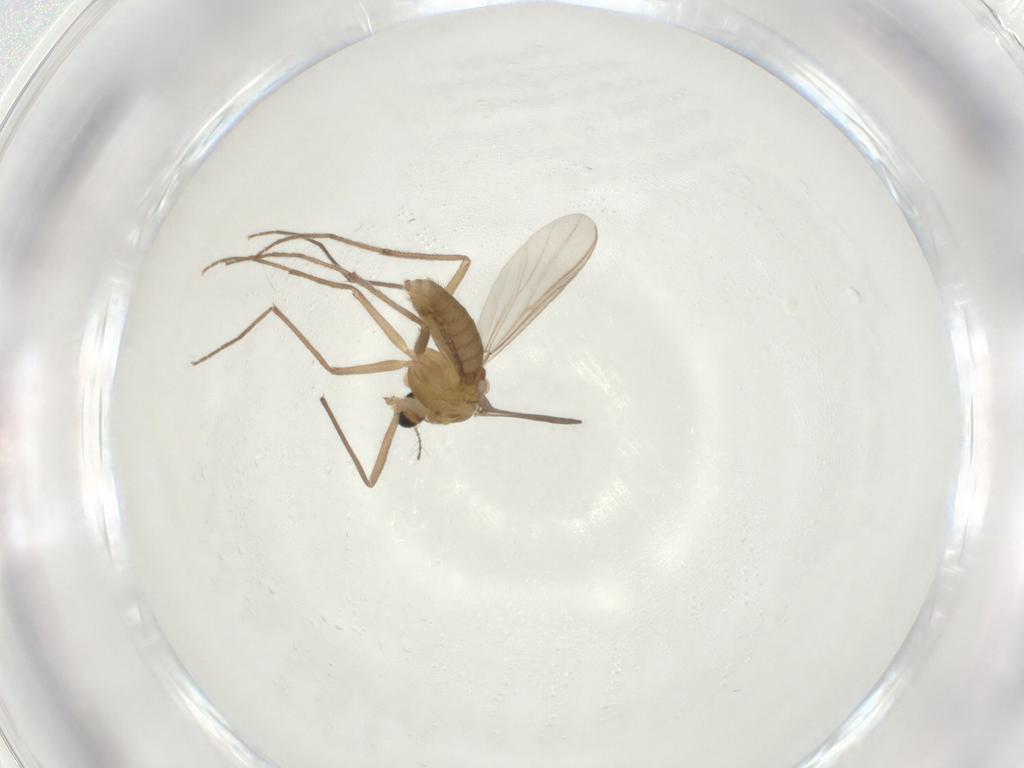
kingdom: Animalia
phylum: Arthropoda
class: Insecta
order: Diptera
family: Chironomidae
